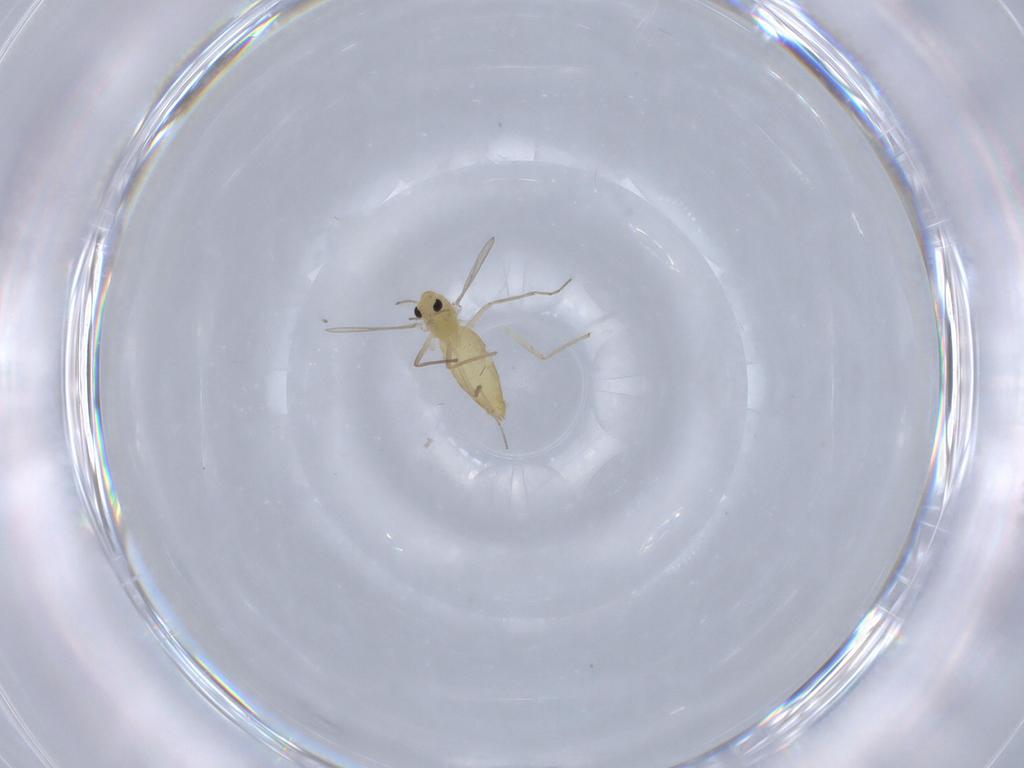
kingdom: Animalia
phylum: Arthropoda
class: Insecta
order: Diptera
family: Chironomidae
